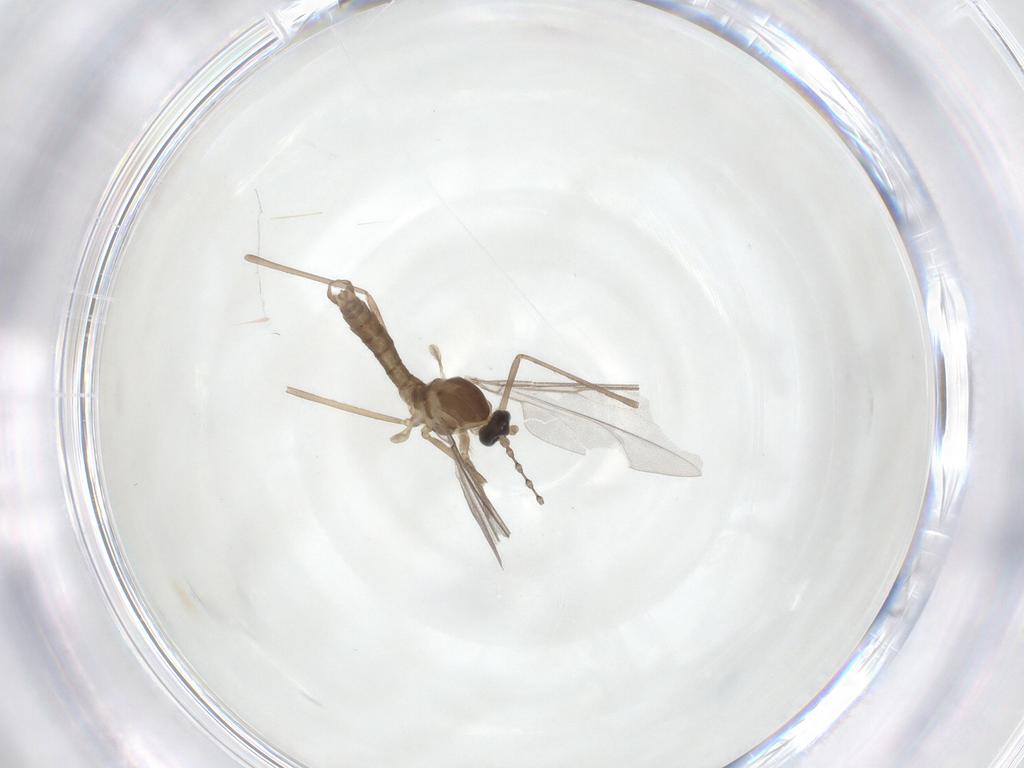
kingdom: Animalia
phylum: Arthropoda
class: Insecta
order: Diptera
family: Cecidomyiidae
